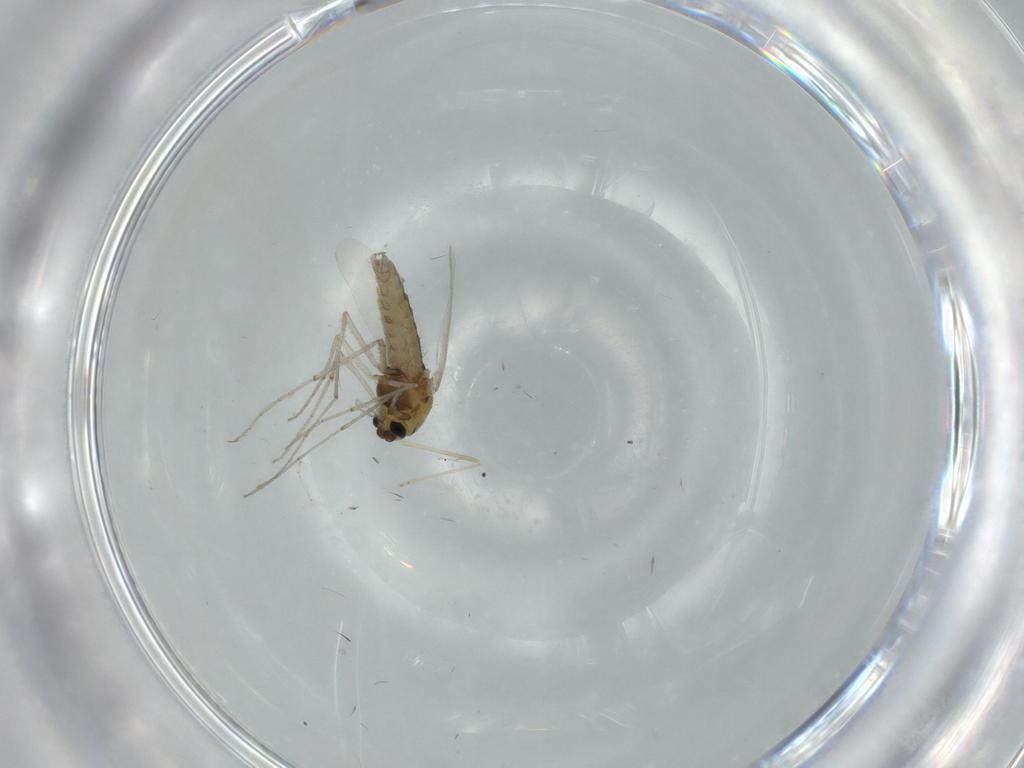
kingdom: Animalia
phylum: Arthropoda
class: Insecta
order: Diptera
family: Chironomidae
